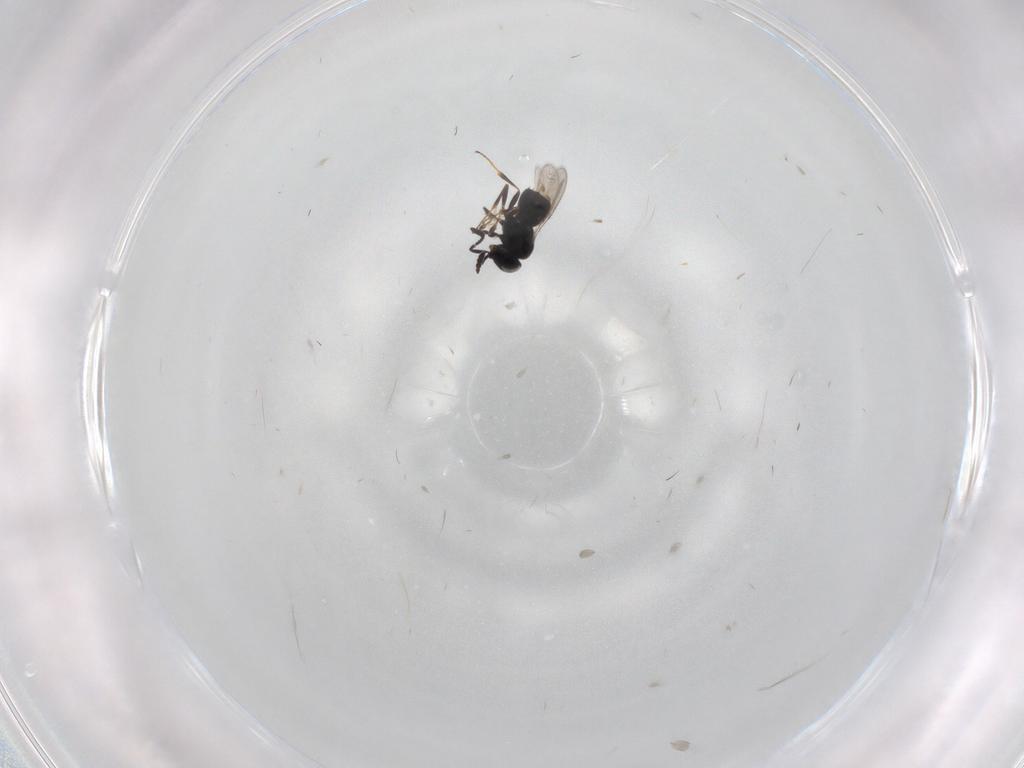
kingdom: Animalia
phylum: Arthropoda
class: Insecta
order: Hymenoptera
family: Scelionidae
